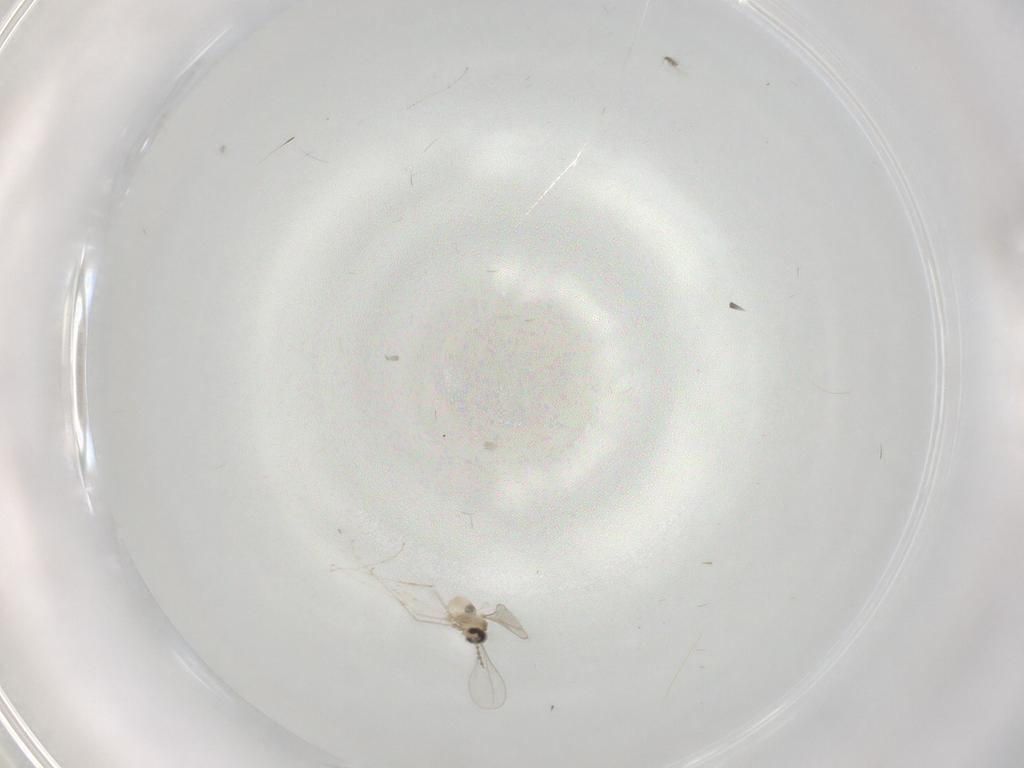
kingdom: Animalia
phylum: Arthropoda
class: Insecta
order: Diptera
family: Cecidomyiidae
